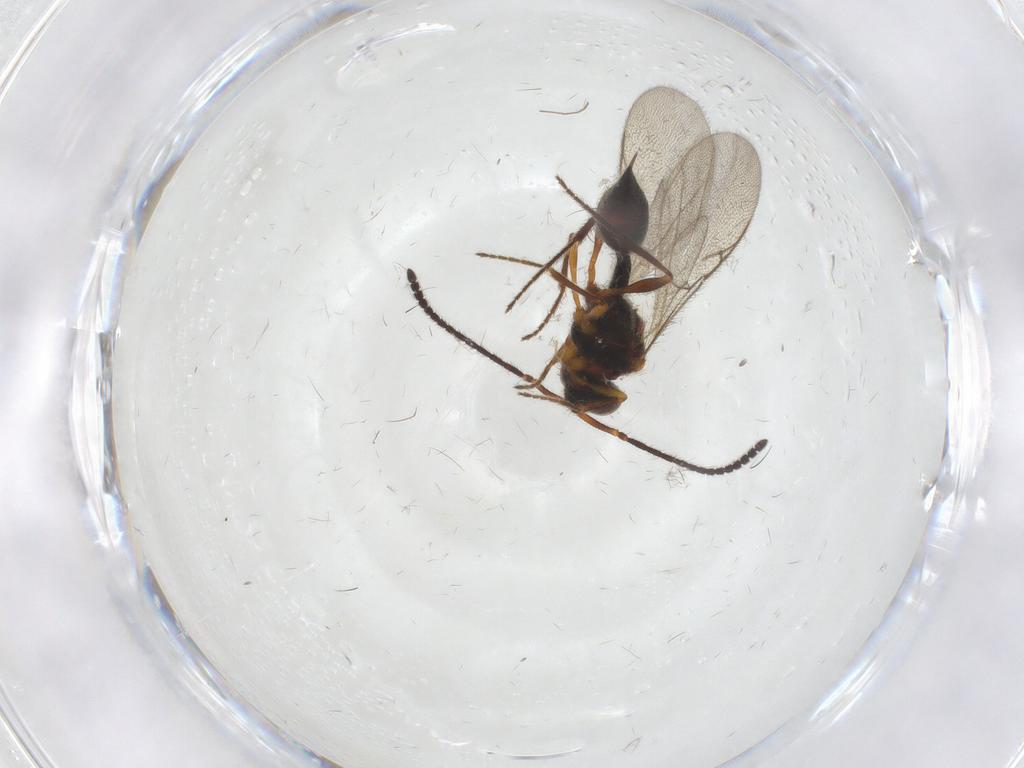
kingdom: Animalia
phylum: Arthropoda
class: Insecta
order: Hymenoptera
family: Diapriidae
